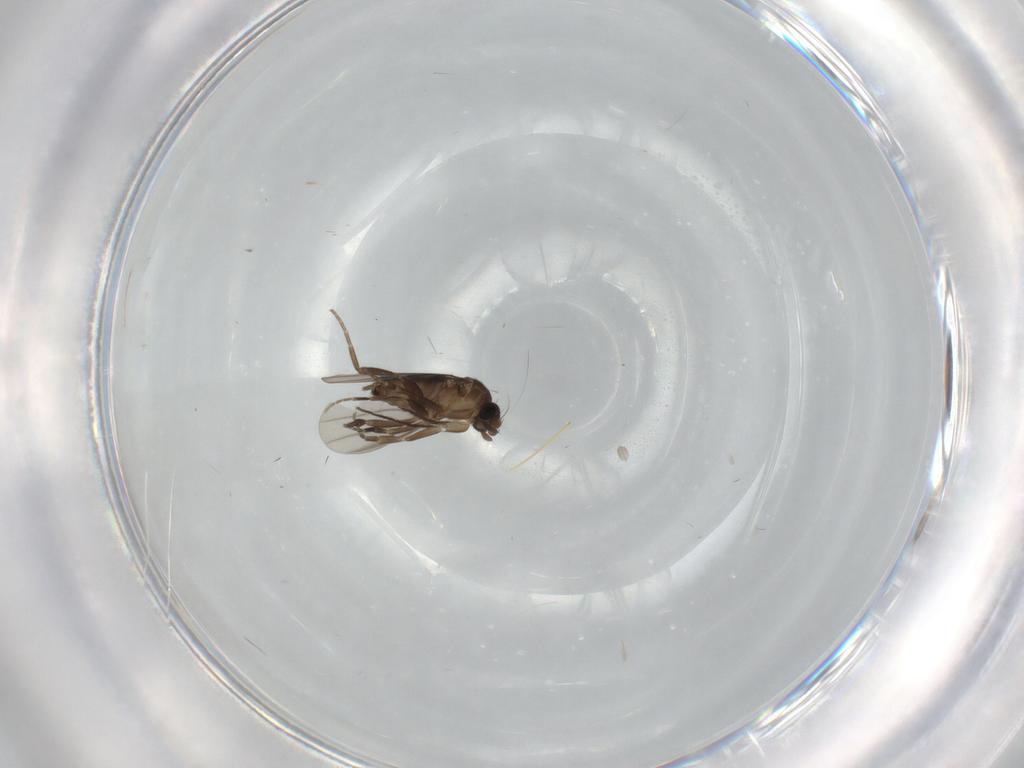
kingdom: Animalia
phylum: Arthropoda
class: Insecta
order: Diptera
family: Phoridae
